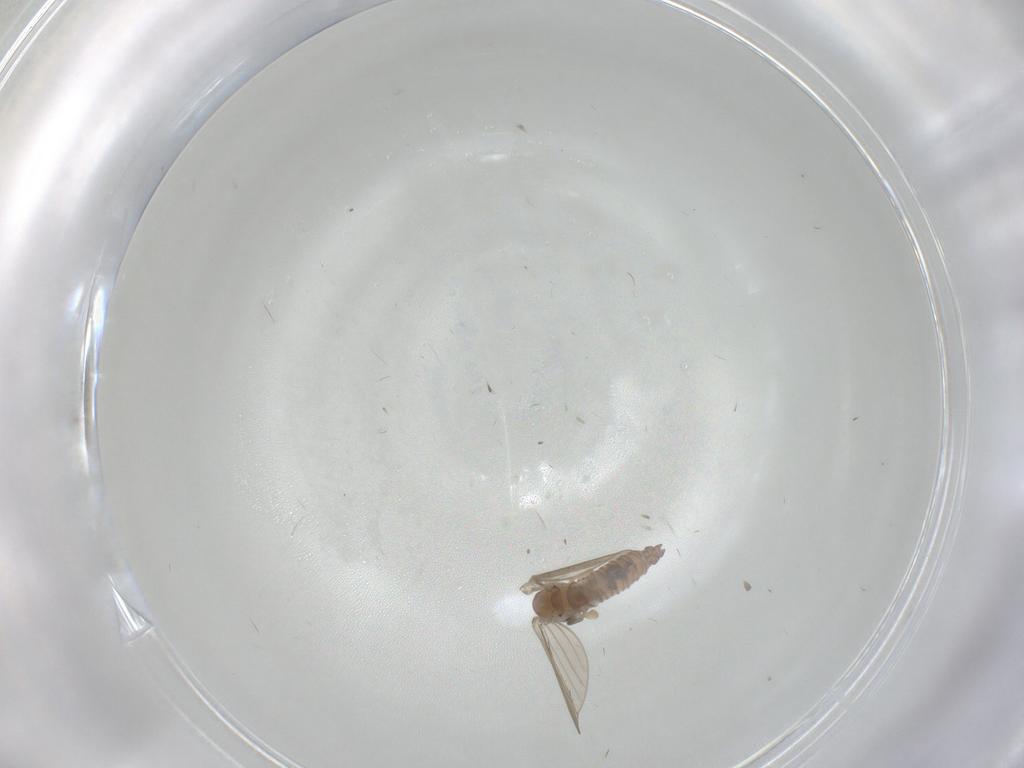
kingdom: Animalia
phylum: Arthropoda
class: Insecta
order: Diptera
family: Psychodidae
